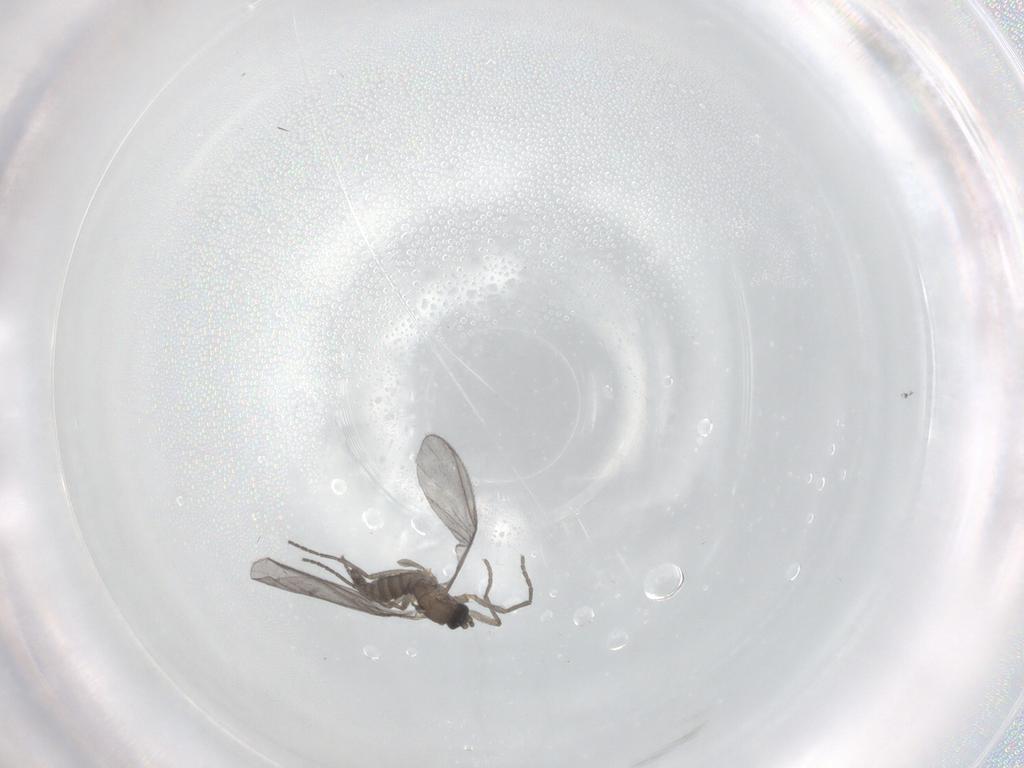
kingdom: Animalia
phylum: Arthropoda
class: Insecta
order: Diptera
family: Sciaridae
